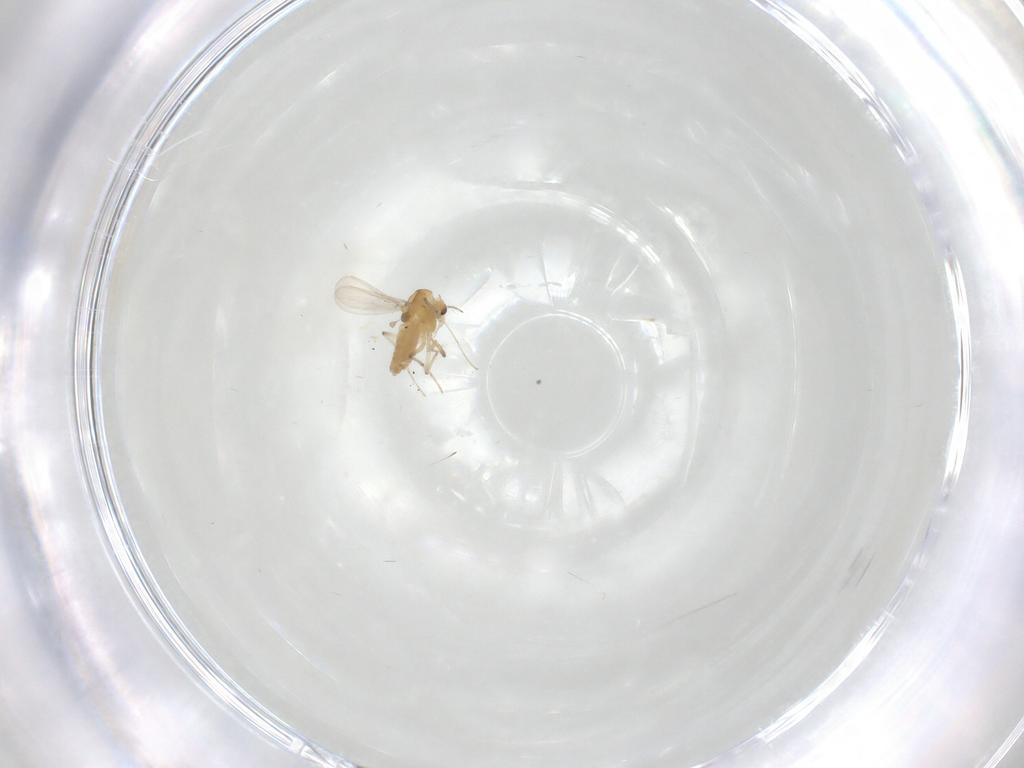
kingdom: Animalia
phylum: Arthropoda
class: Insecta
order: Diptera
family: Chironomidae
